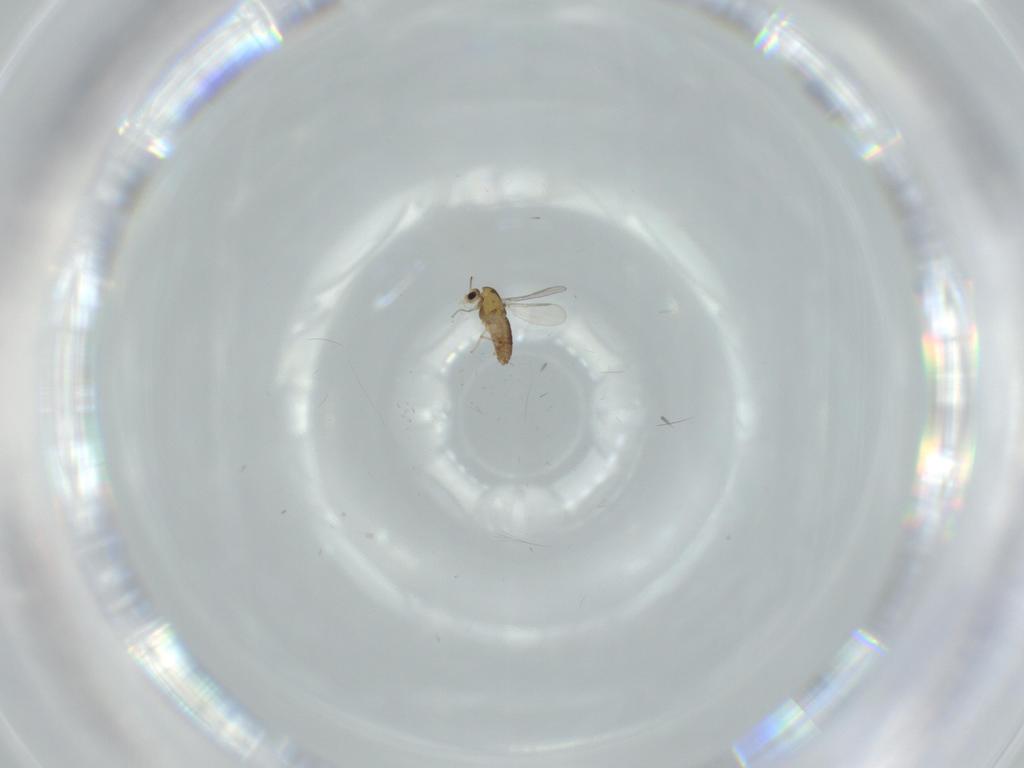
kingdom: Animalia
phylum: Arthropoda
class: Insecta
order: Diptera
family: Chironomidae
